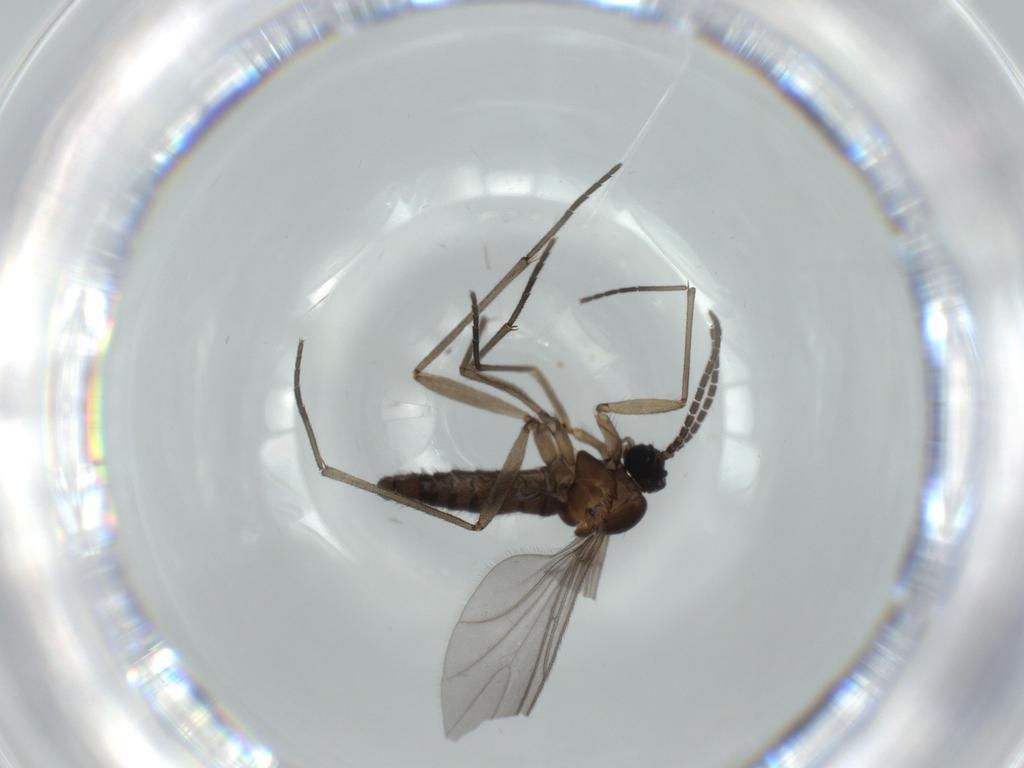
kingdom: Animalia
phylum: Arthropoda
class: Insecta
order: Diptera
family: Sciaridae
